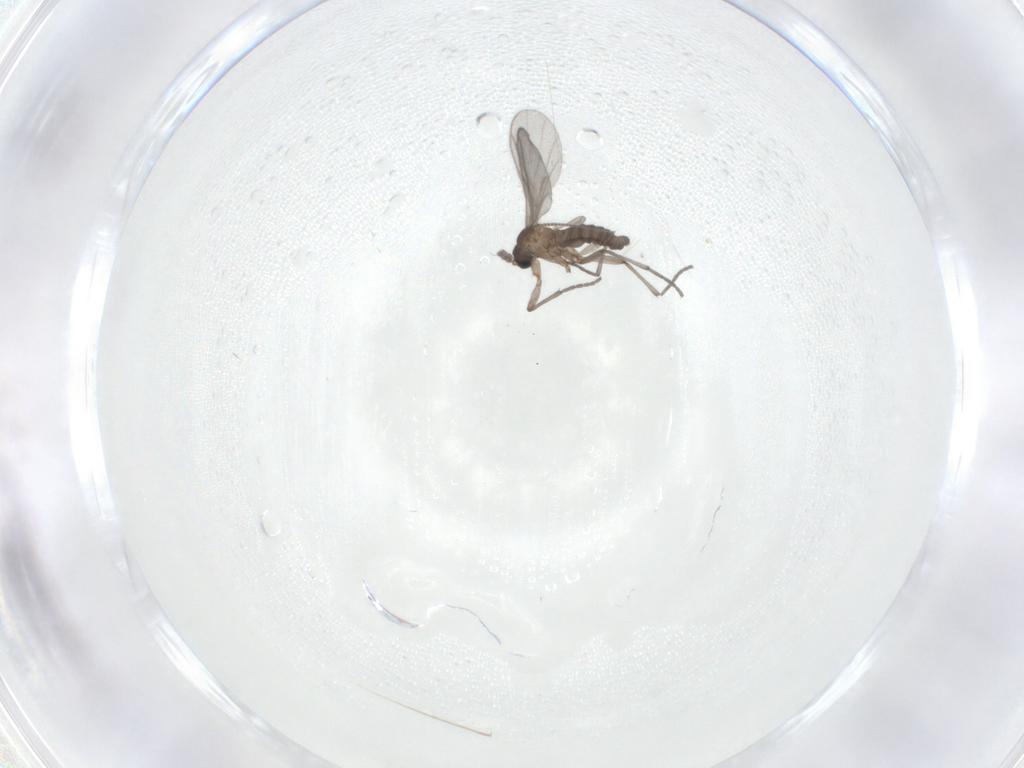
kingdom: Animalia
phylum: Arthropoda
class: Insecta
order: Diptera
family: Sciaridae
